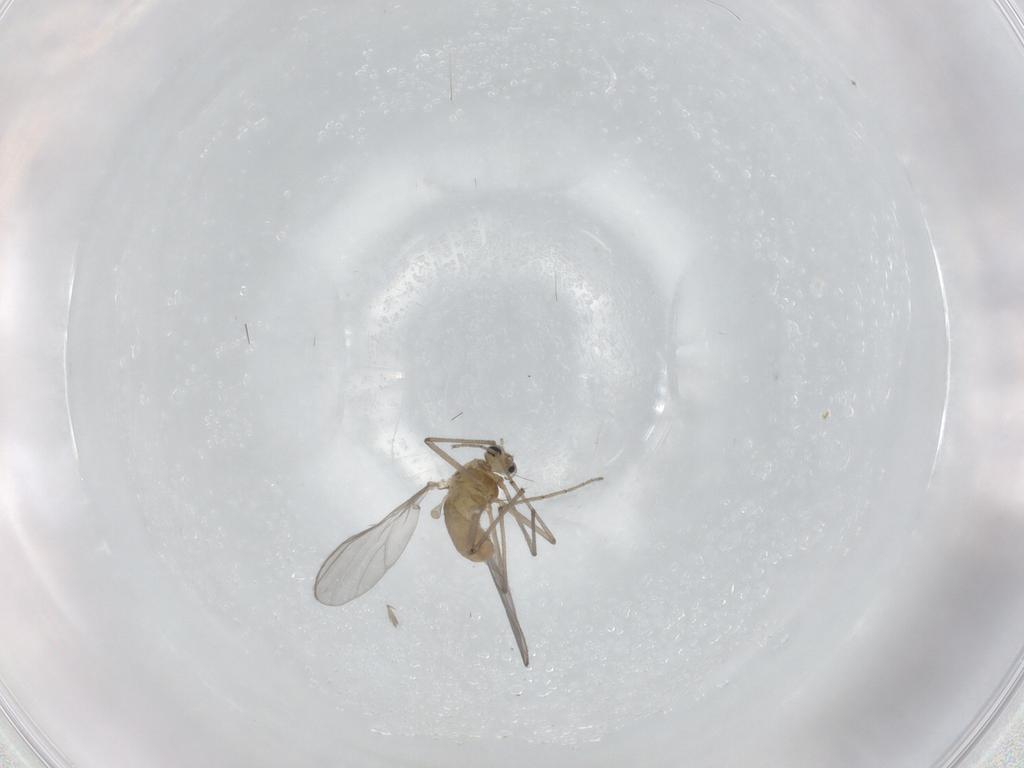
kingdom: Animalia
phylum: Arthropoda
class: Insecta
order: Diptera
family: Chironomidae
